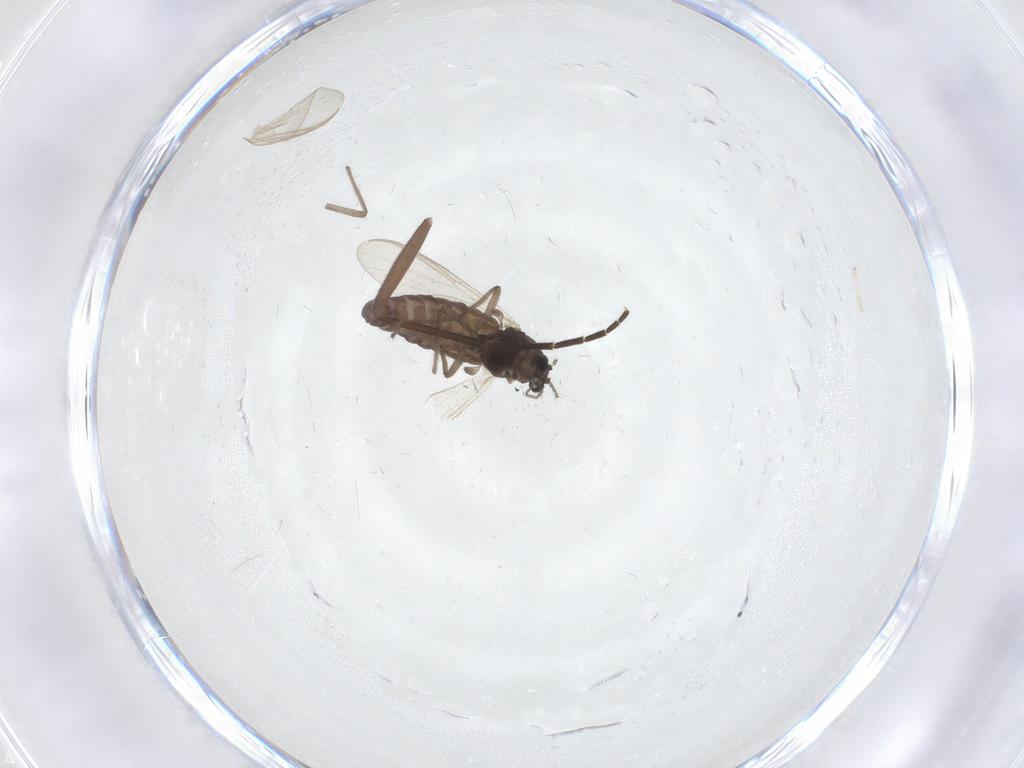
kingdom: Animalia
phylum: Arthropoda
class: Insecta
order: Diptera
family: Sciaridae
